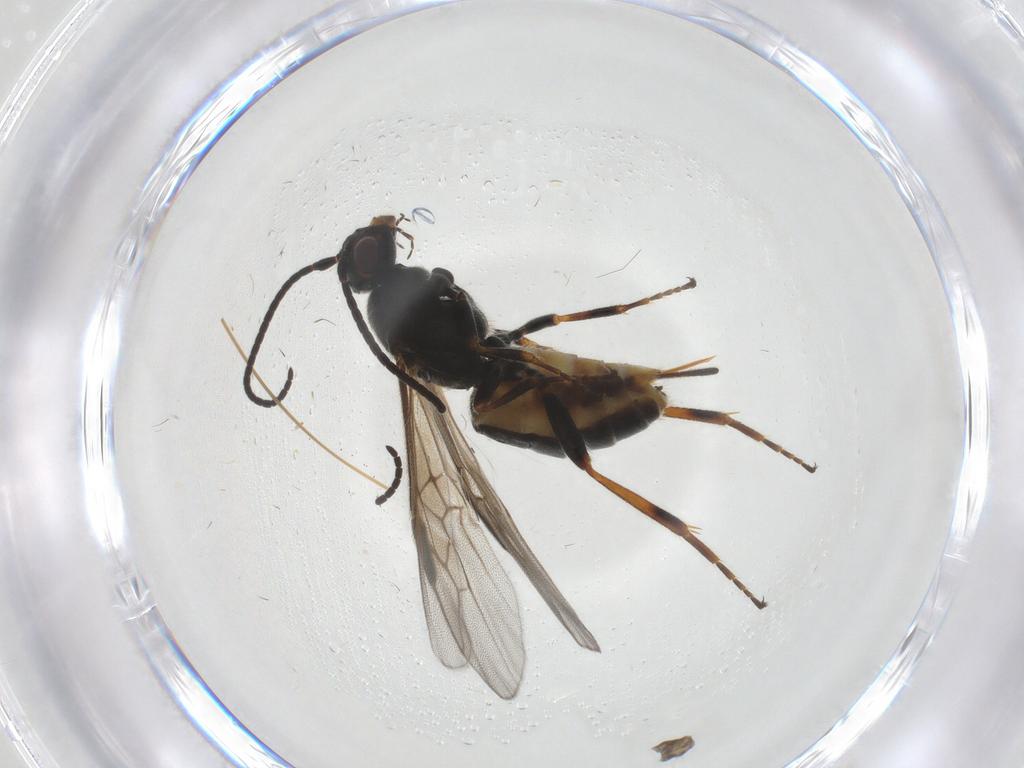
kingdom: Animalia
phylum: Arthropoda
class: Insecta
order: Hymenoptera
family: Braconidae
